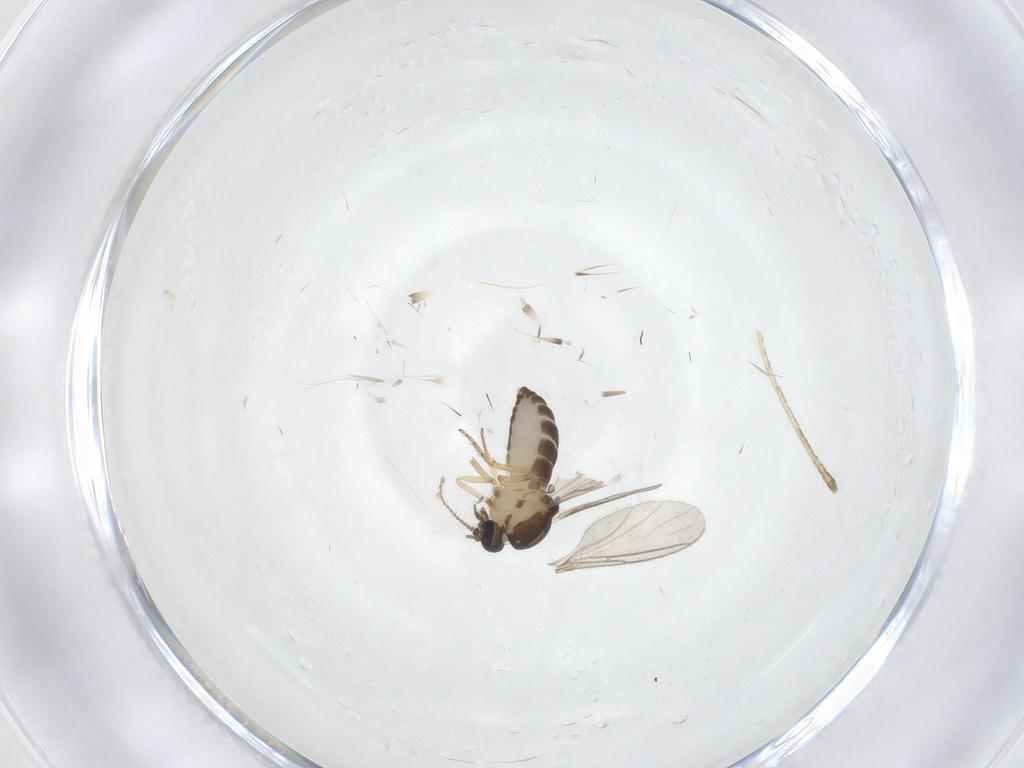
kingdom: Animalia
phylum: Arthropoda
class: Insecta
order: Diptera
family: Ceratopogonidae
